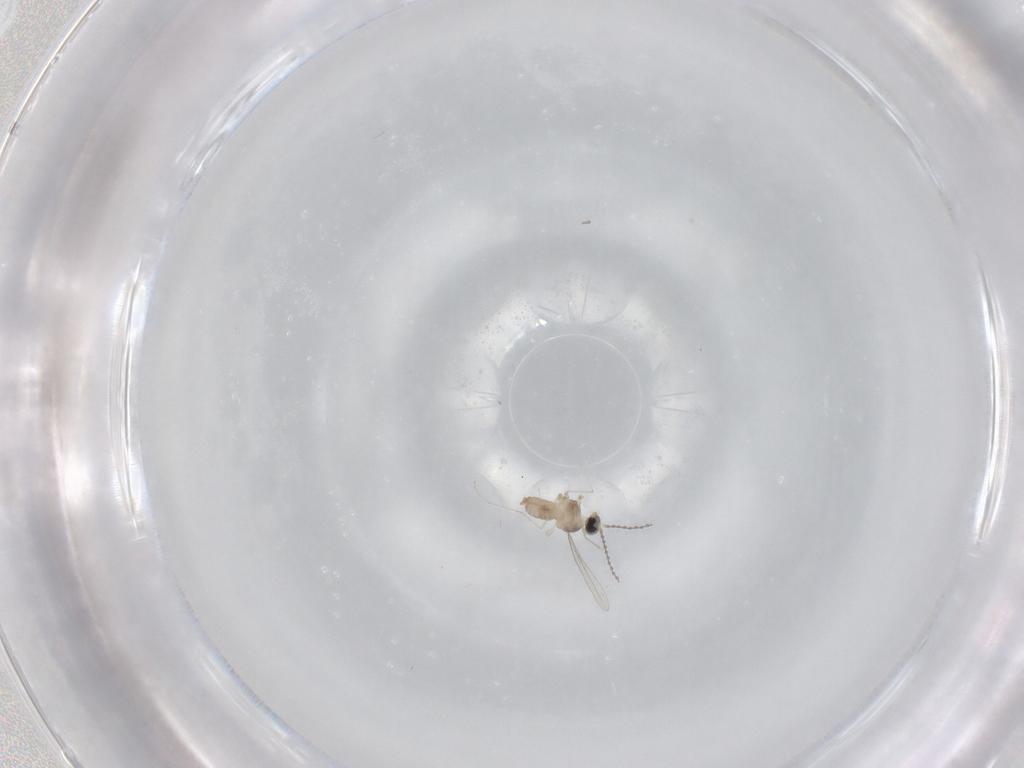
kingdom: Animalia
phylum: Arthropoda
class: Insecta
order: Diptera
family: Cecidomyiidae
